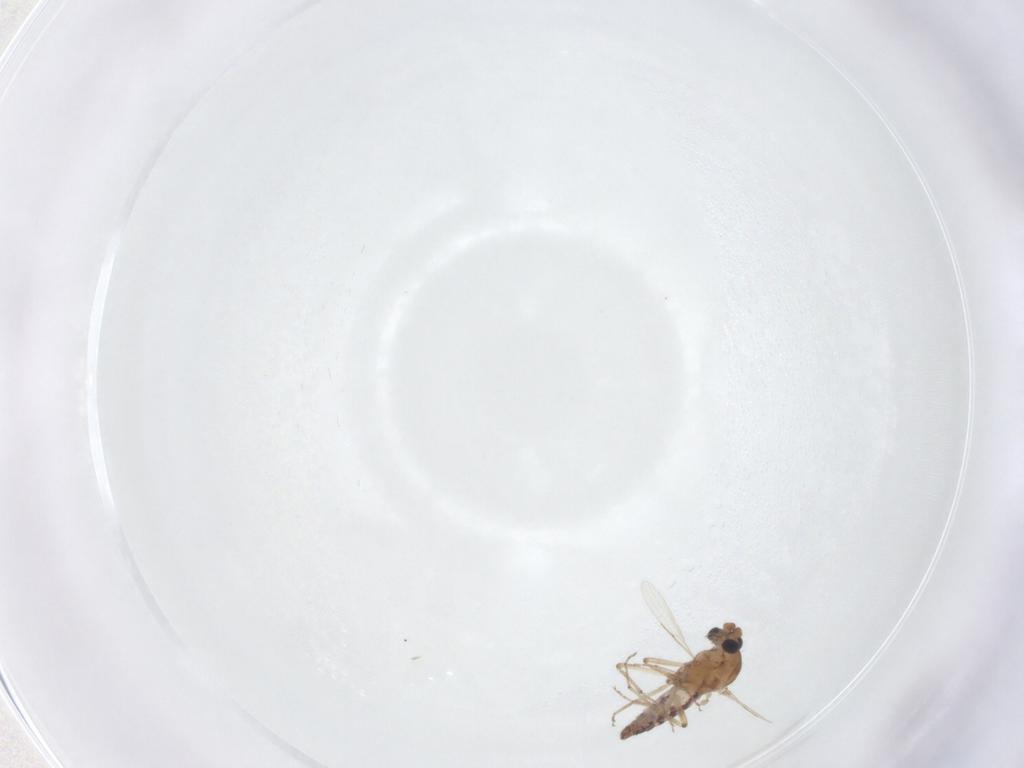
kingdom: Animalia
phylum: Arthropoda
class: Insecta
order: Diptera
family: Ceratopogonidae
